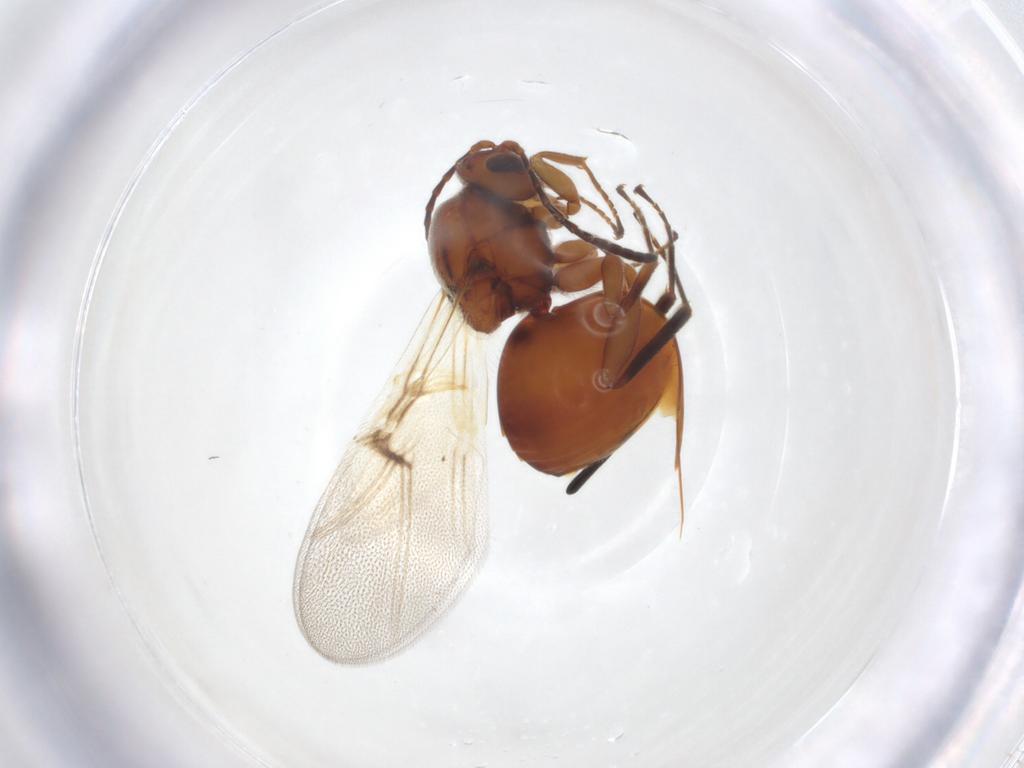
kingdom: Animalia
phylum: Arthropoda
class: Insecta
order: Hymenoptera
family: Cynipidae
